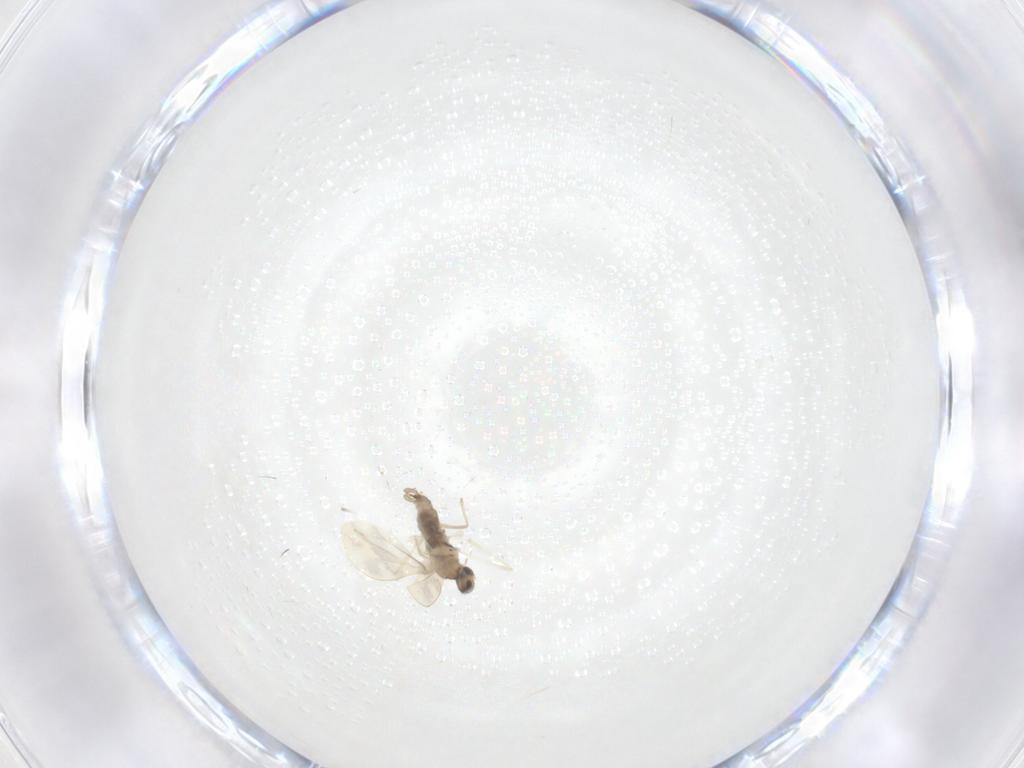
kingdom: Animalia
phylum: Arthropoda
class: Insecta
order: Diptera
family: Cecidomyiidae
